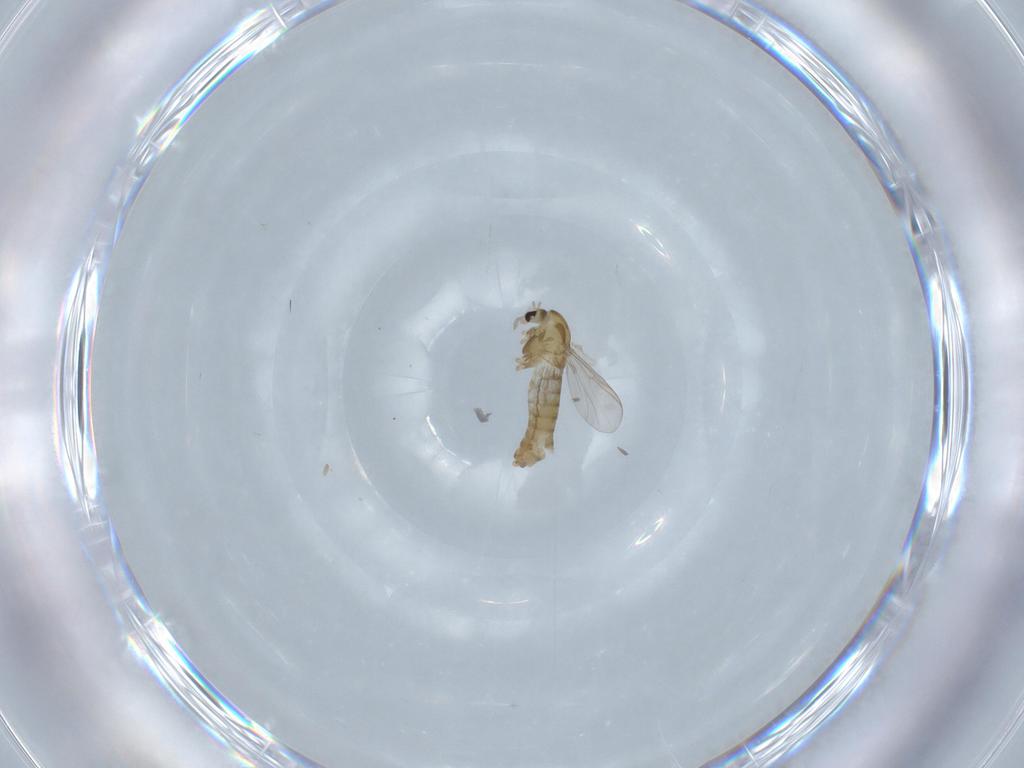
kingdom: Animalia
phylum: Arthropoda
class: Insecta
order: Diptera
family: Chironomidae
